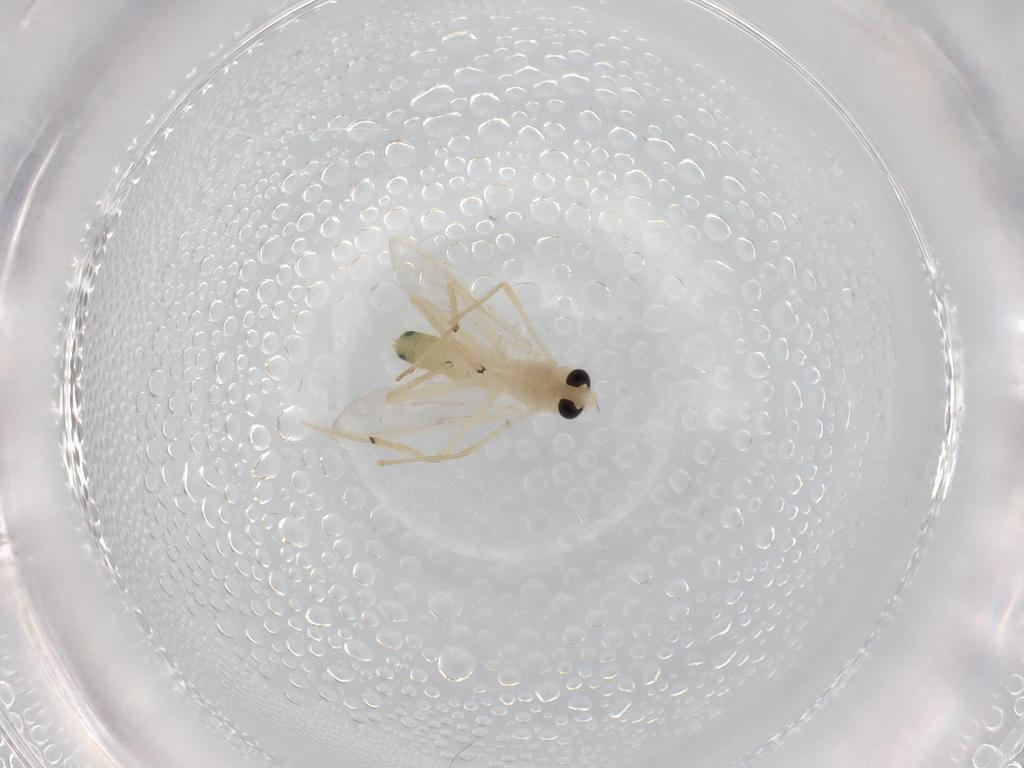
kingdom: Animalia
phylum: Arthropoda
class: Insecta
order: Diptera
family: Chironomidae
